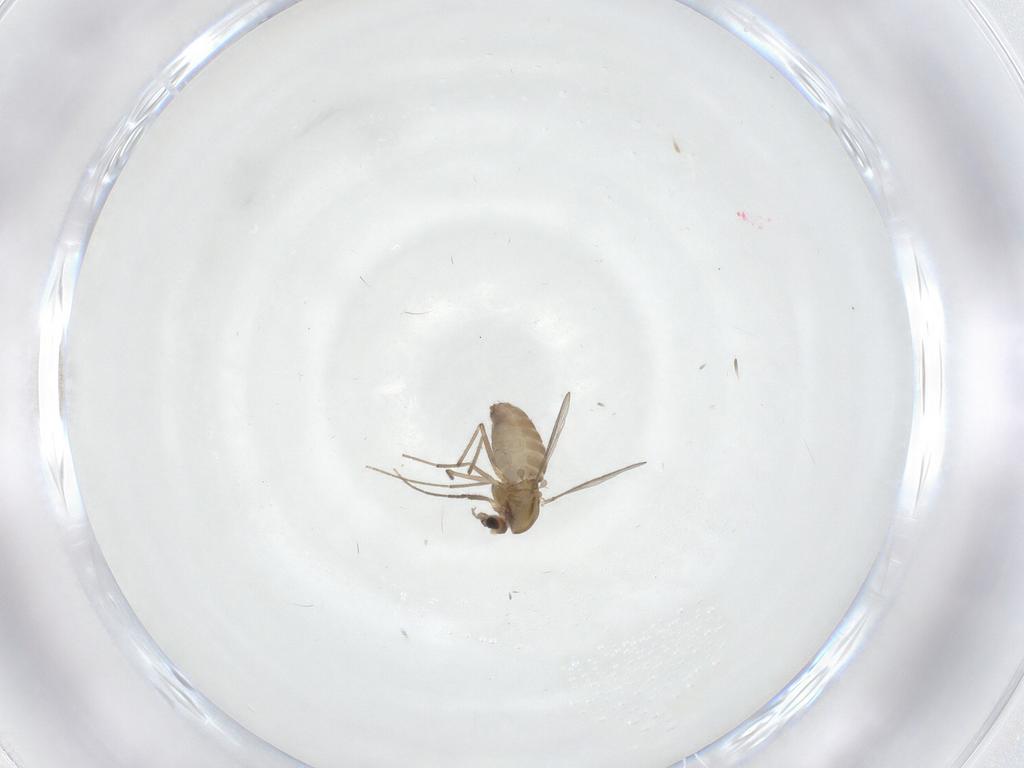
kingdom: Animalia
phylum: Arthropoda
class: Insecta
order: Diptera
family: Chironomidae
